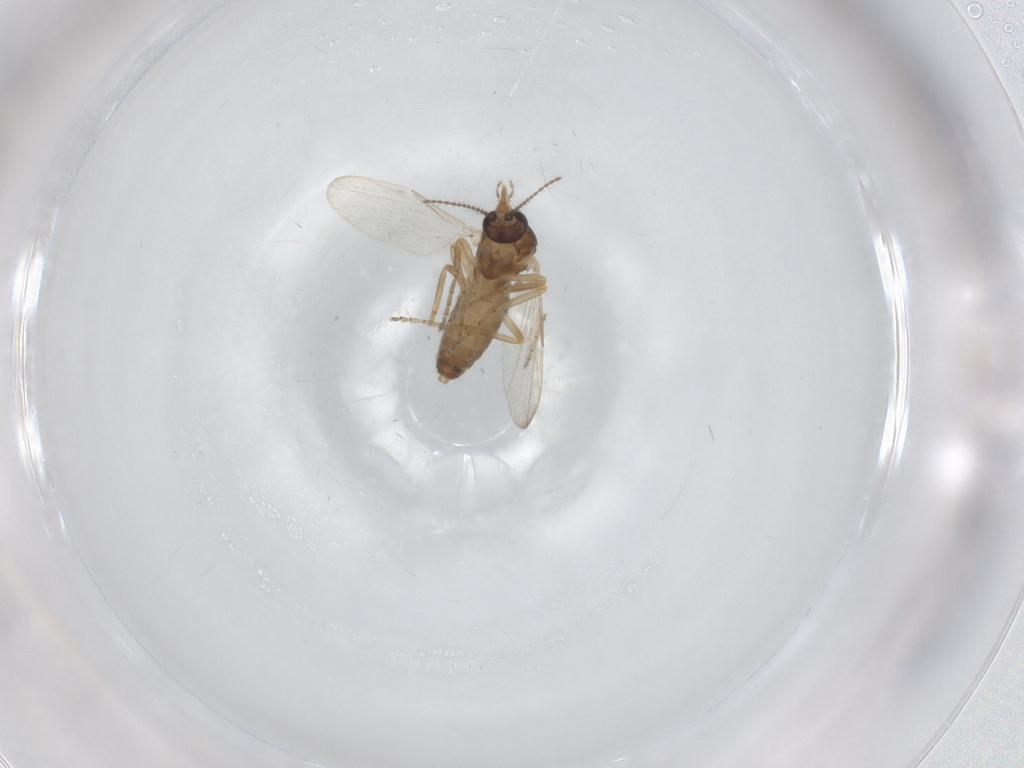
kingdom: Animalia
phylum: Arthropoda
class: Insecta
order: Diptera
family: Ceratopogonidae
